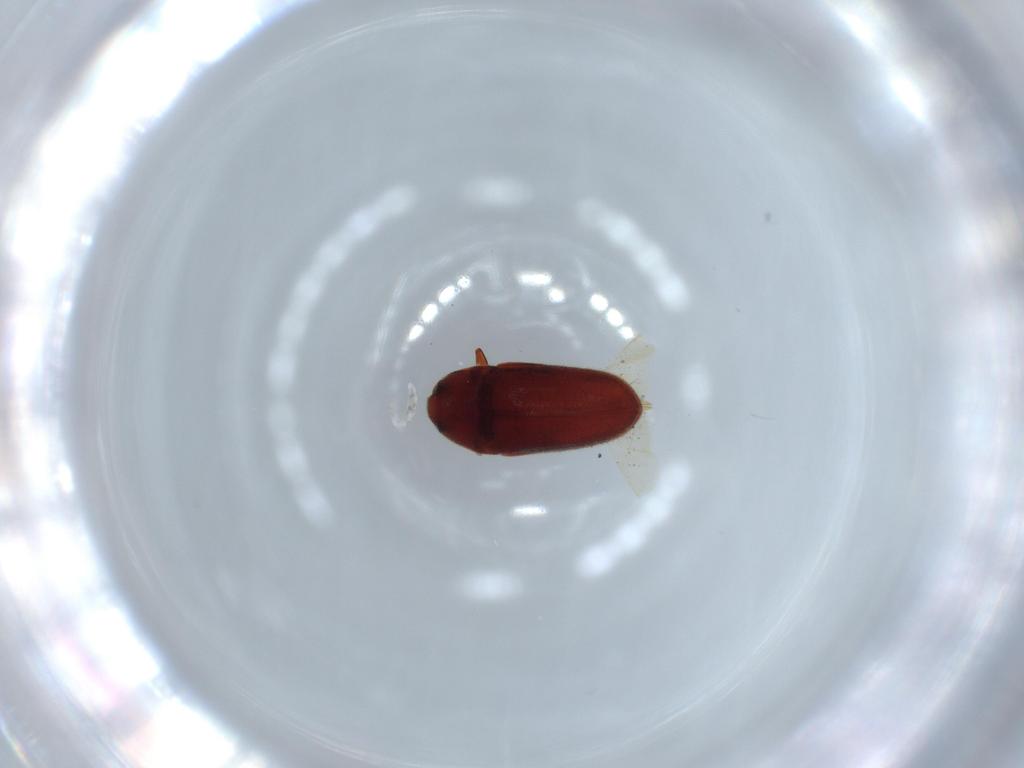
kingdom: Animalia
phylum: Arthropoda
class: Insecta
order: Coleoptera
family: Throscidae
